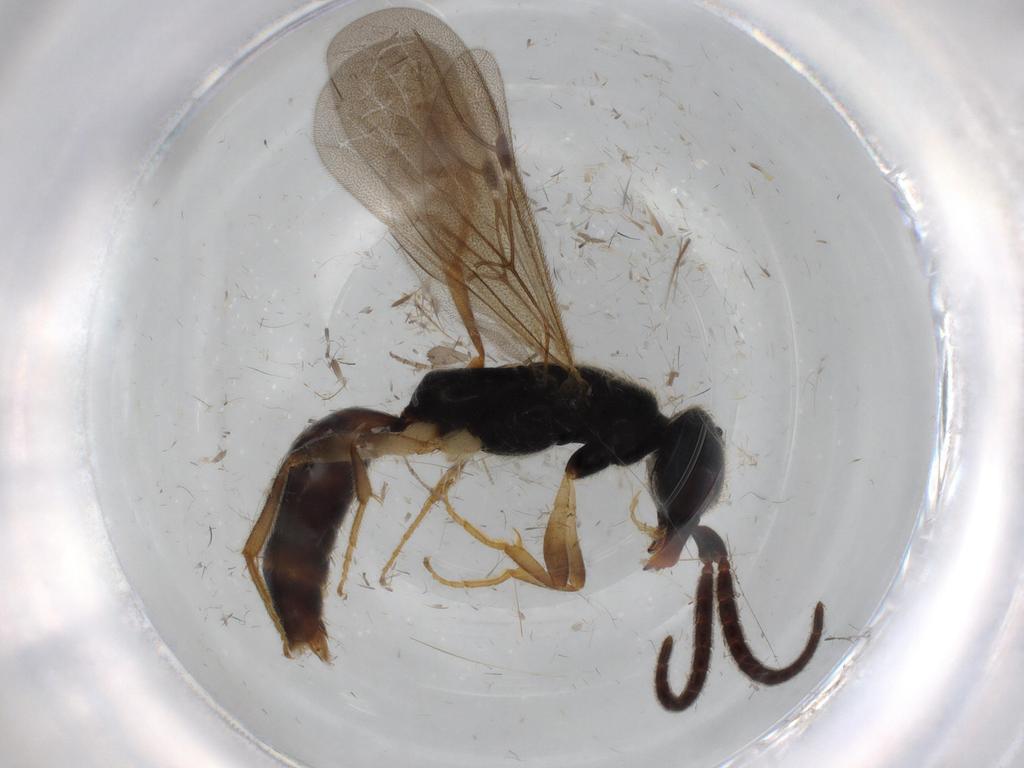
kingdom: Animalia
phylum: Arthropoda
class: Insecta
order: Hymenoptera
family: Bethylidae
